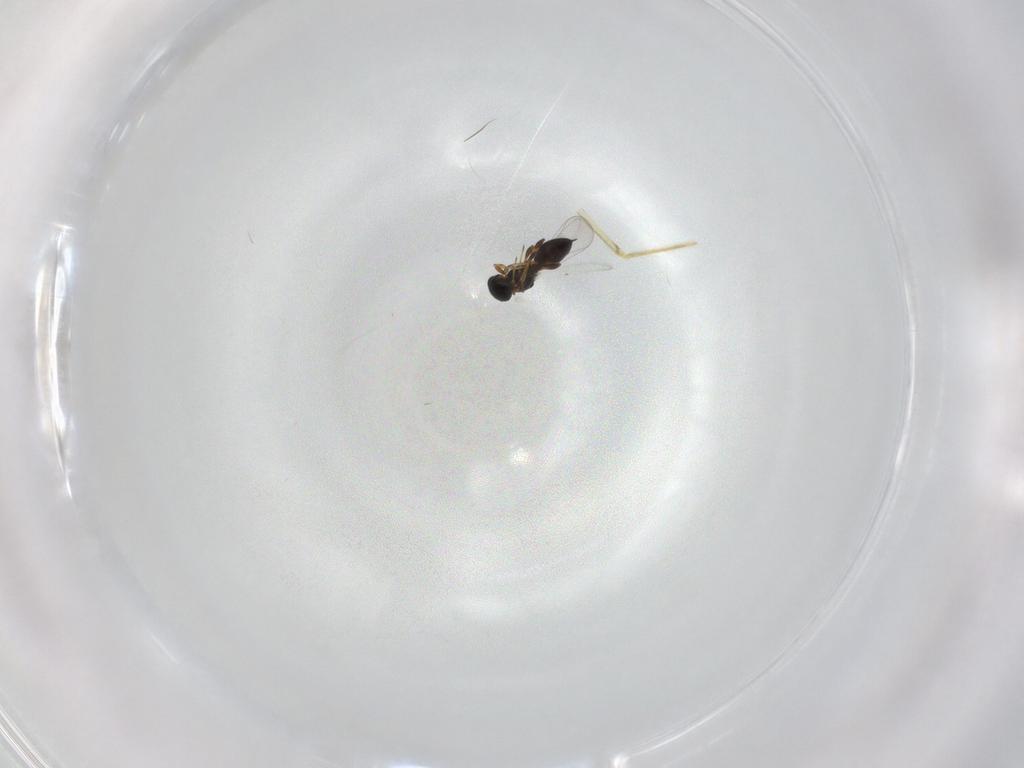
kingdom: Animalia
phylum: Arthropoda
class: Insecta
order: Hymenoptera
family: Platygastridae
